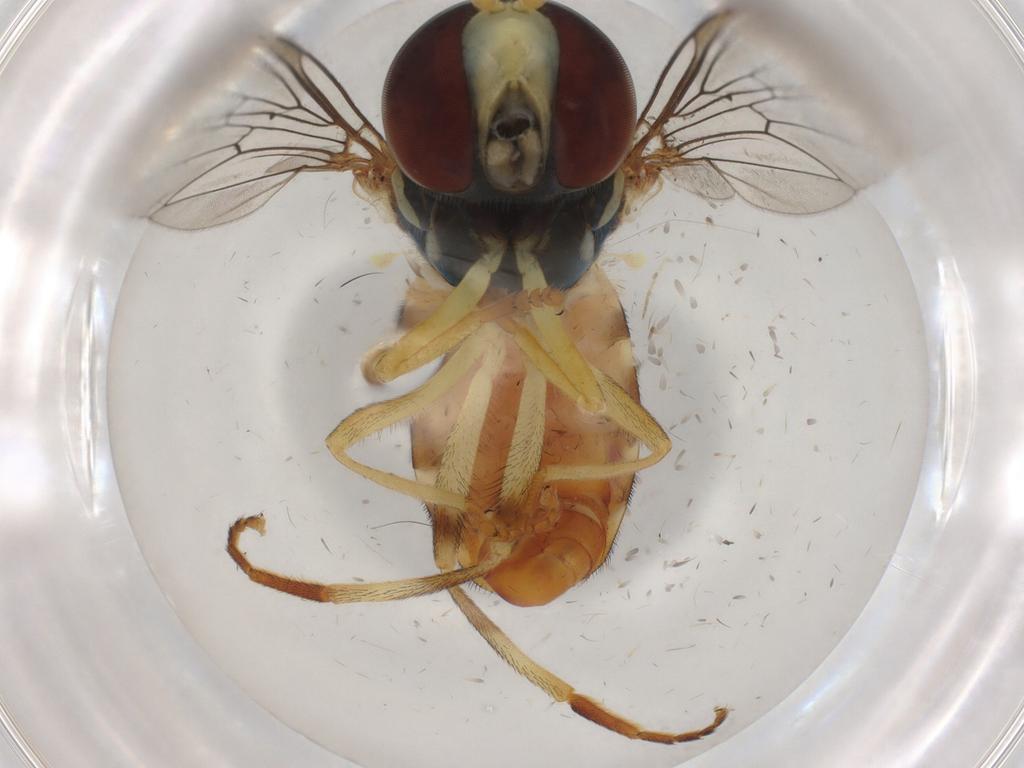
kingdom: Animalia
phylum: Arthropoda
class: Insecta
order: Diptera
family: Syrphidae
